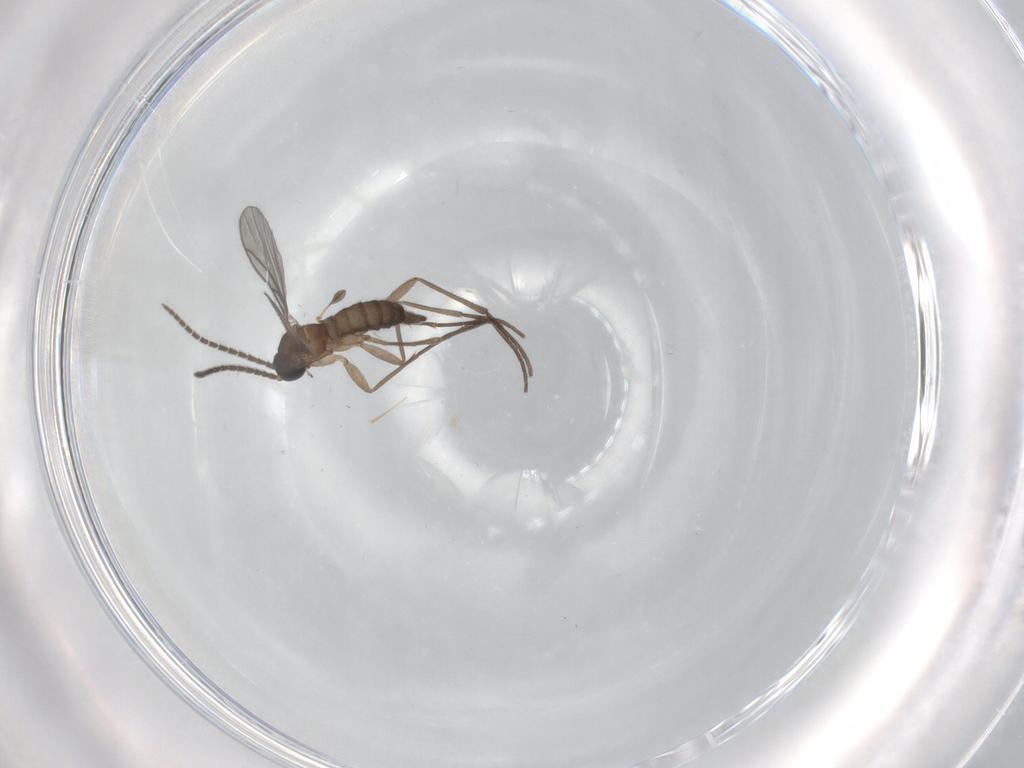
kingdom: Animalia
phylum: Arthropoda
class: Insecta
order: Diptera
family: Sciaridae
